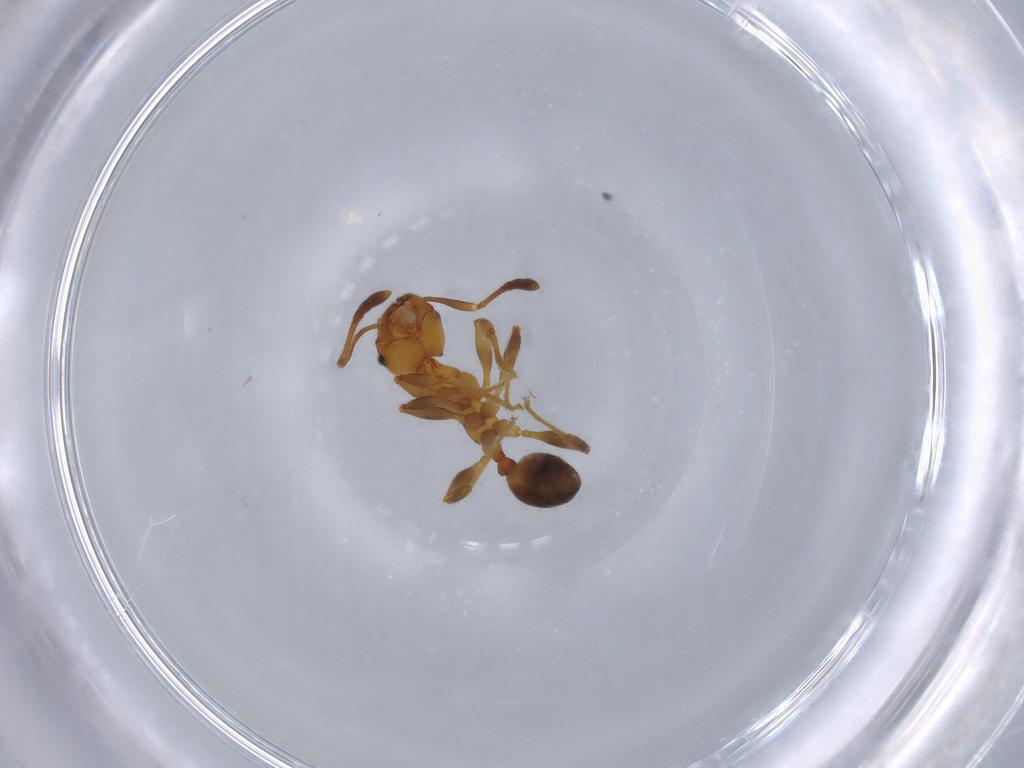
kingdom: Animalia
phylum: Arthropoda
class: Insecta
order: Hymenoptera
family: Formicidae
